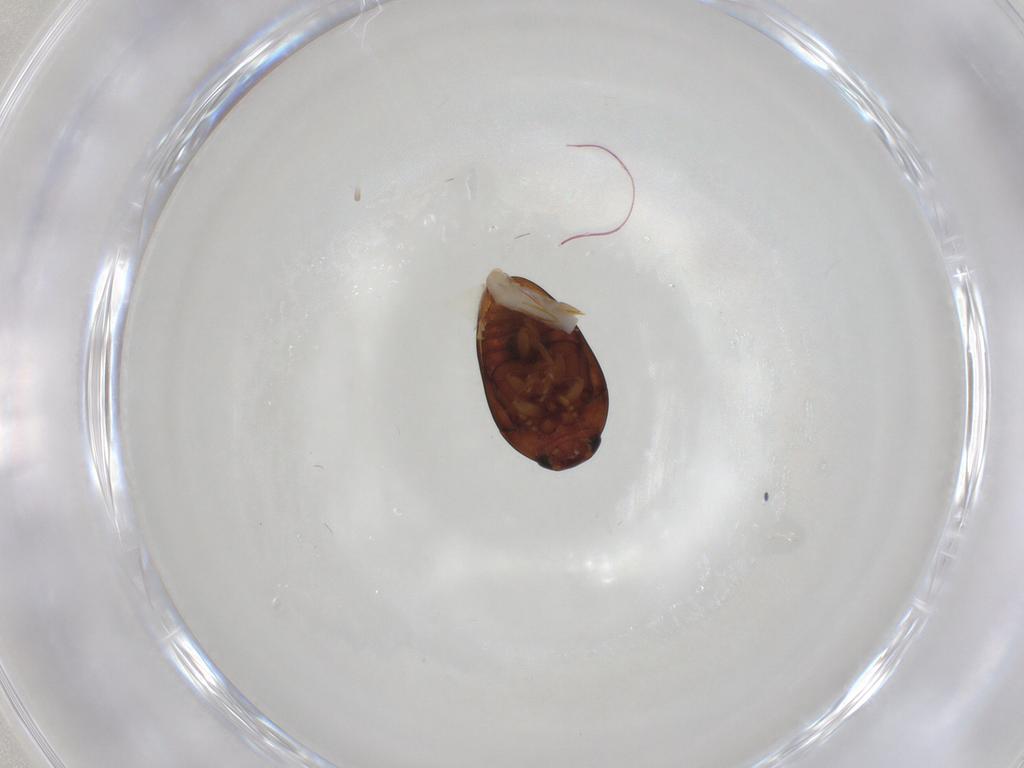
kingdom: Animalia
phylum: Arthropoda
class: Insecta
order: Coleoptera
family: Phalacridae
